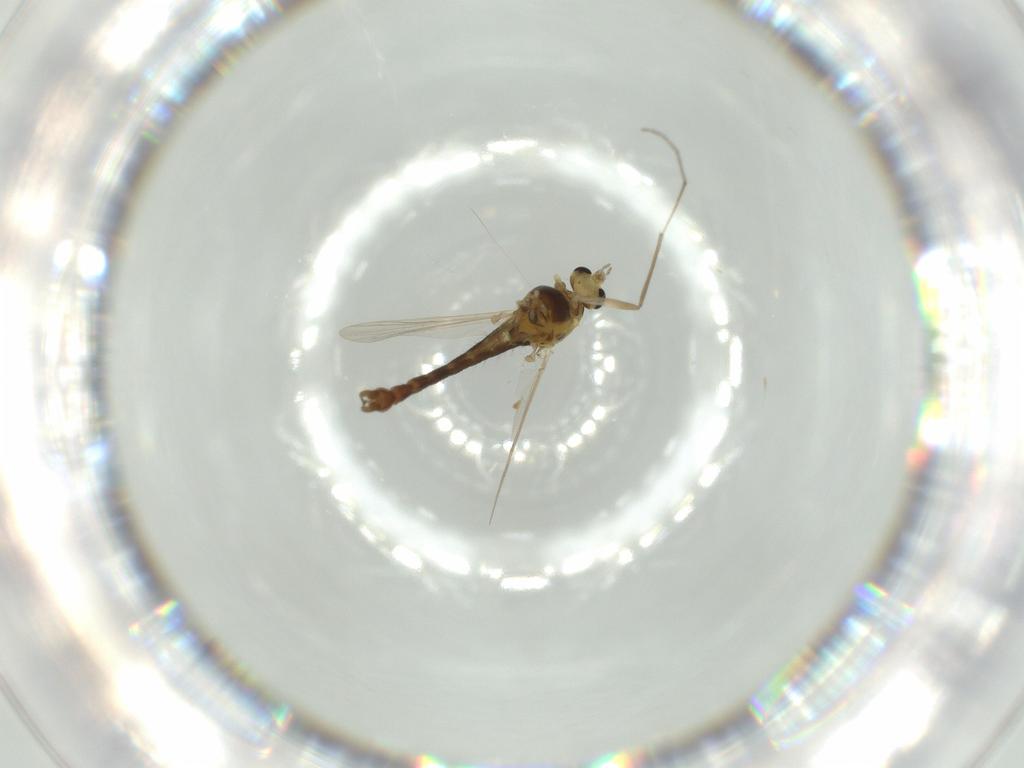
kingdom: Animalia
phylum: Arthropoda
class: Insecta
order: Diptera
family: Chironomidae
